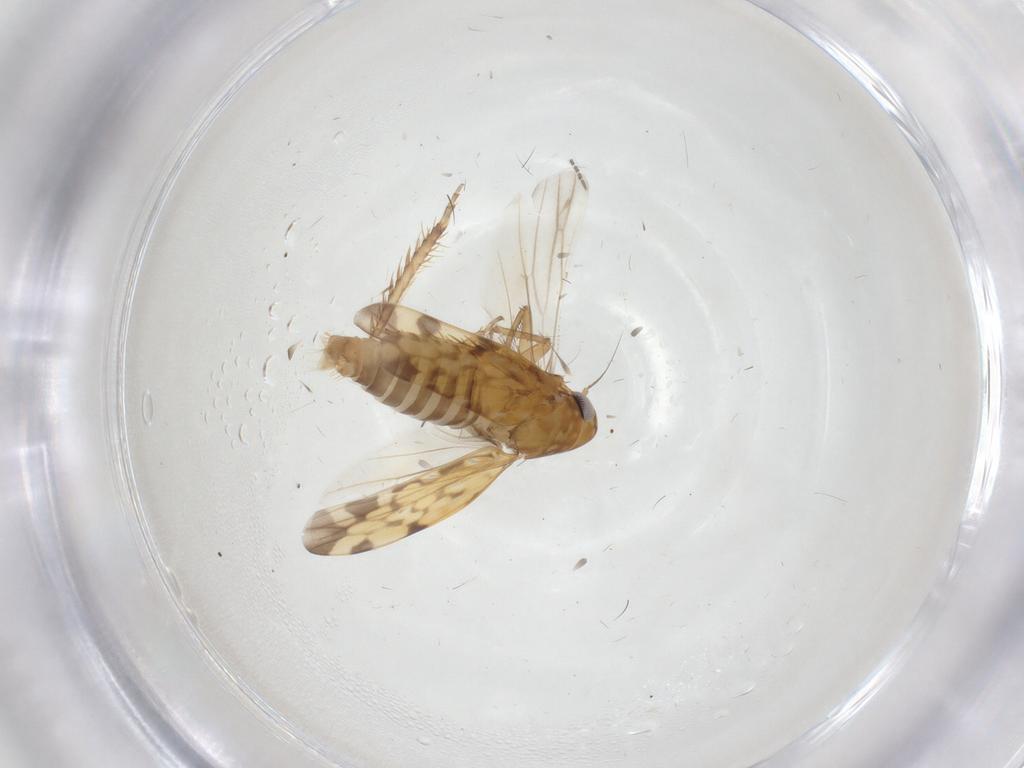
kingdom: Animalia
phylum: Arthropoda
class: Insecta
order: Hemiptera
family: Cicadellidae
